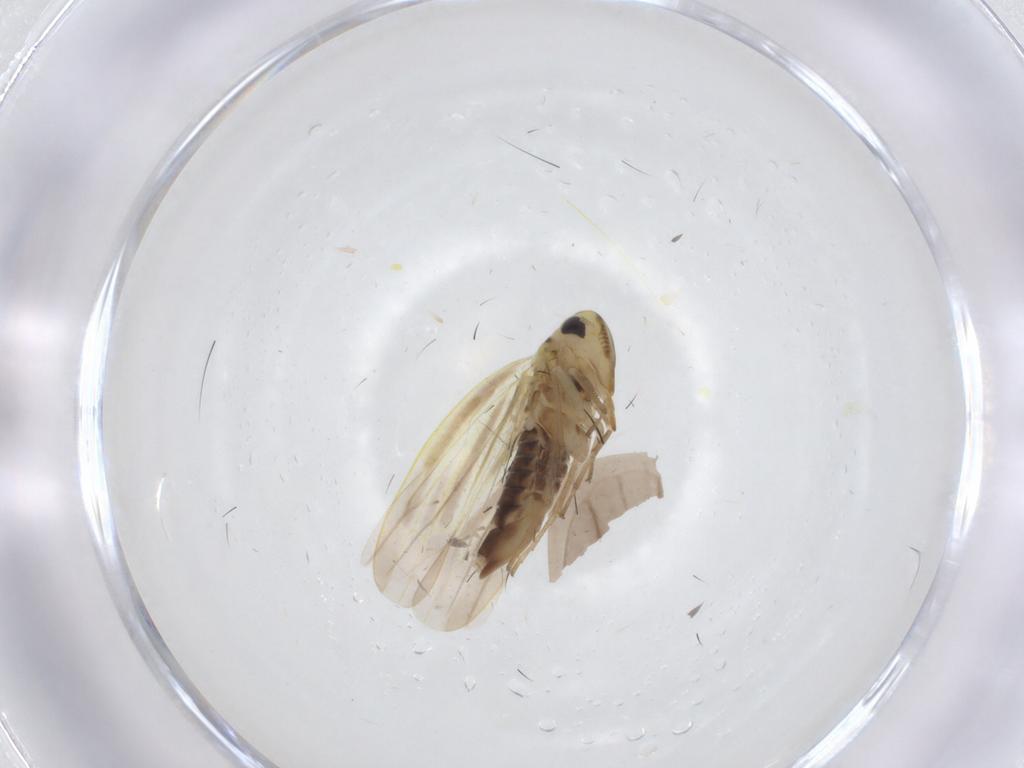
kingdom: Animalia
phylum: Arthropoda
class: Insecta
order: Hemiptera
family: Cicadellidae
